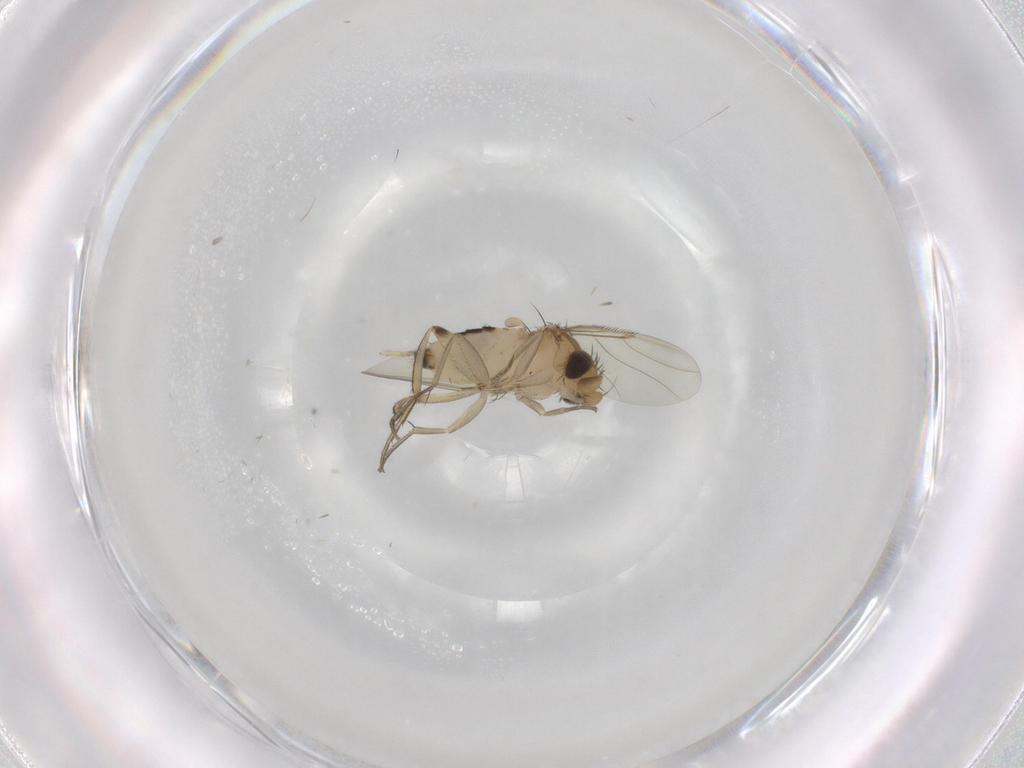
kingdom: Animalia
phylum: Arthropoda
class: Insecta
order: Diptera
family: Phoridae
